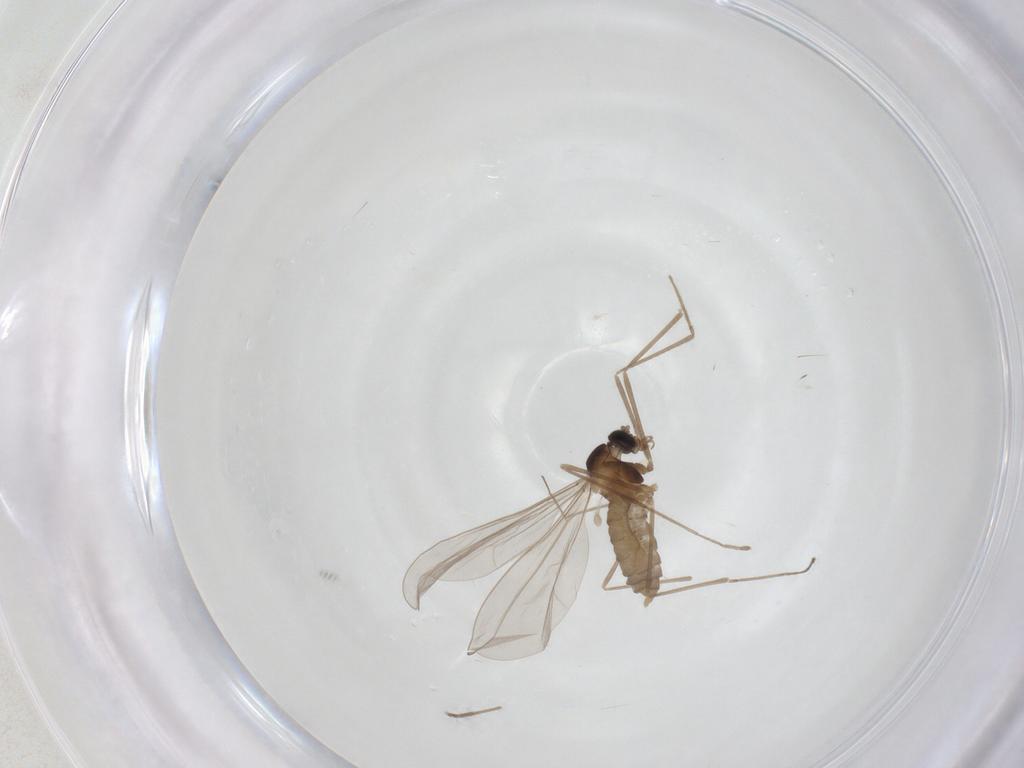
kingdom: Animalia
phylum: Arthropoda
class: Insecta
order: Diptera
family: Cecidomyiidae
